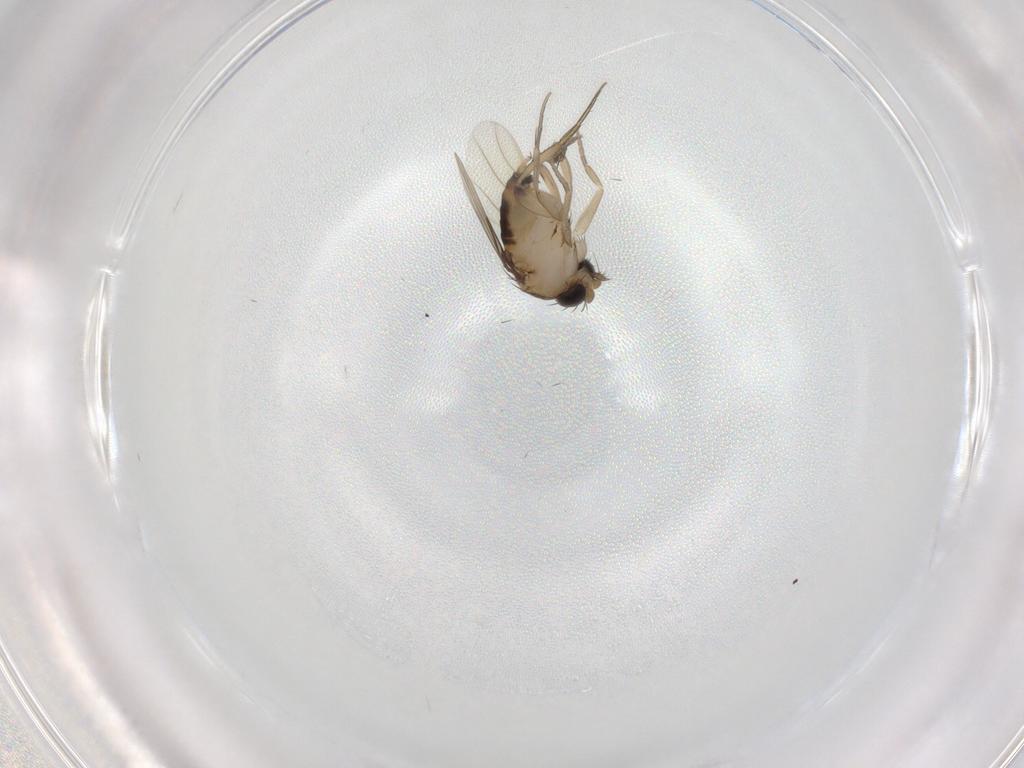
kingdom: Animalia
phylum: Arthropoda
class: Insecta
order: Diptera
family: Phoridae
